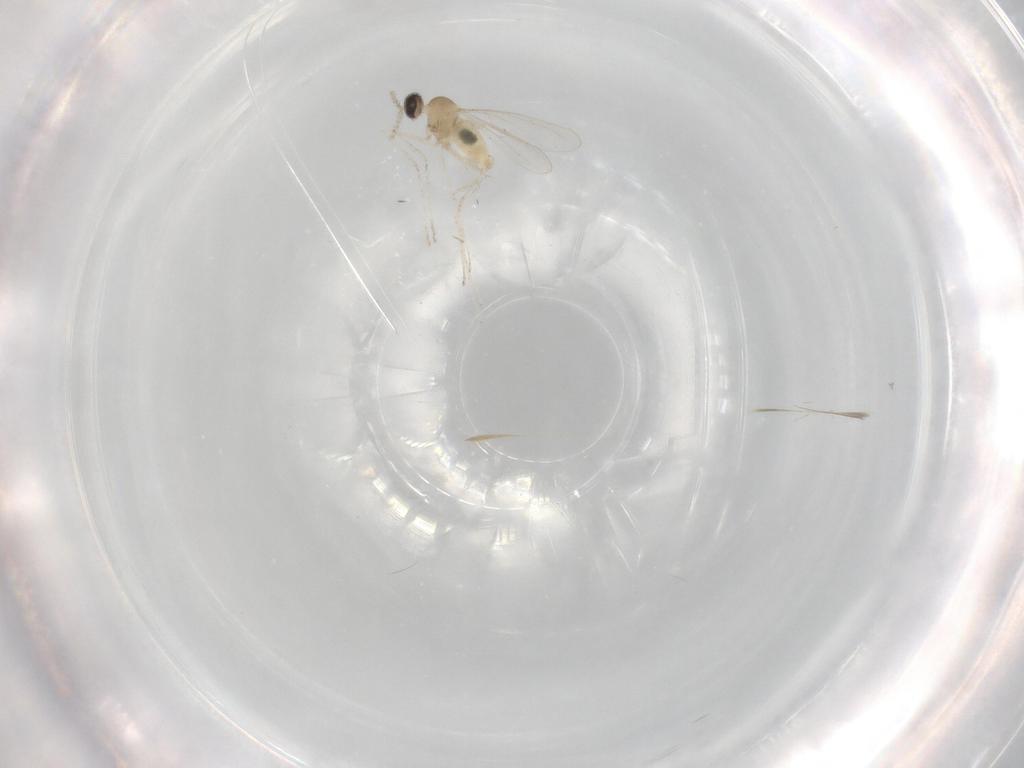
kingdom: Animalia
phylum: Arthropoda
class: Insecta
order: Diptera
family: Cecidomyiidae
